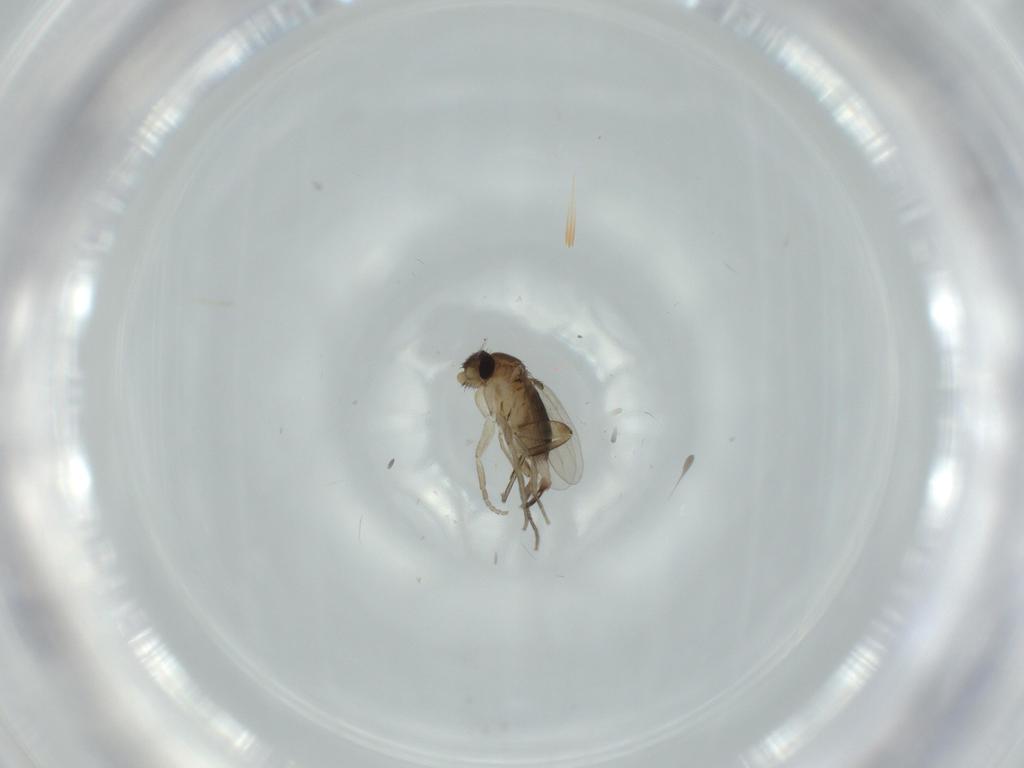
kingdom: Animalia
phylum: Arthropoda
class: Insecta
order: Diptera
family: Phoridae
